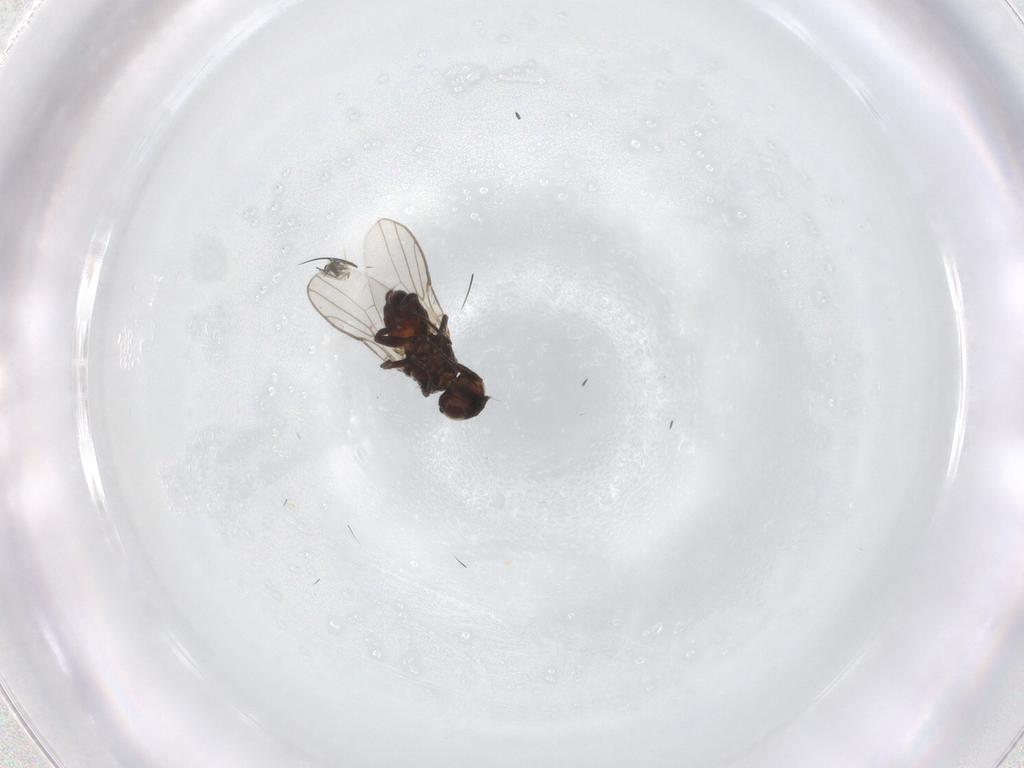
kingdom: Animalia
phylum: Arthropoda
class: Insecta
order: Diptera
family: Chloropidae
